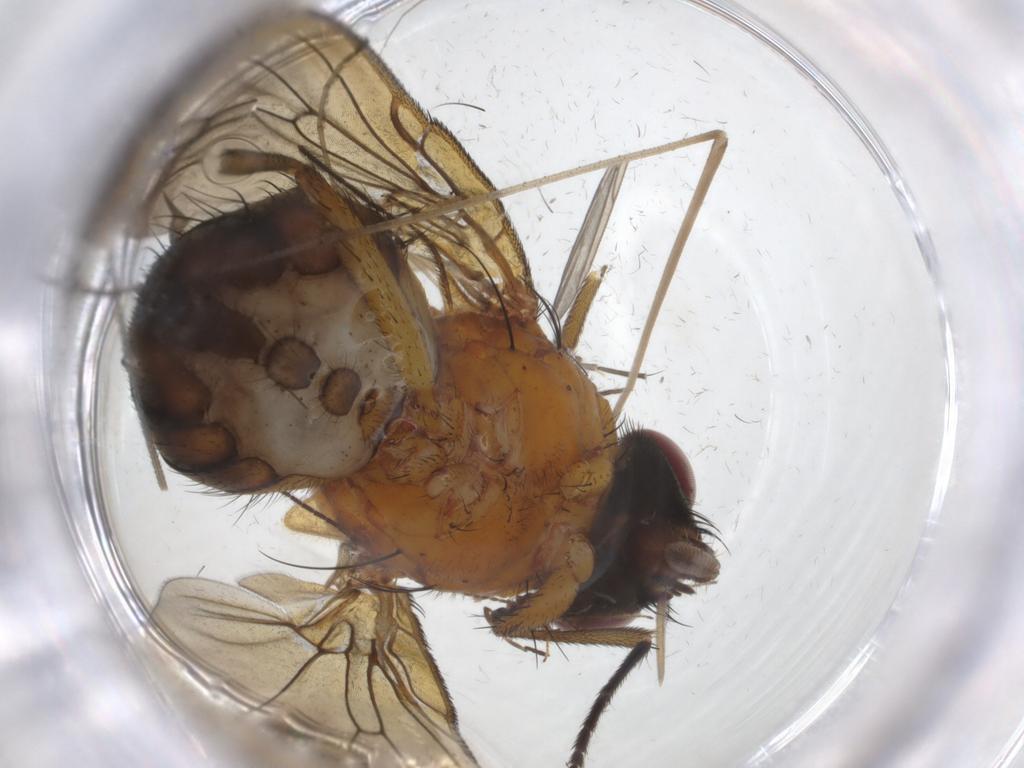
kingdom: Animalia
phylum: Arthropoda
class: Insecta
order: Diptera
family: Muscidae
